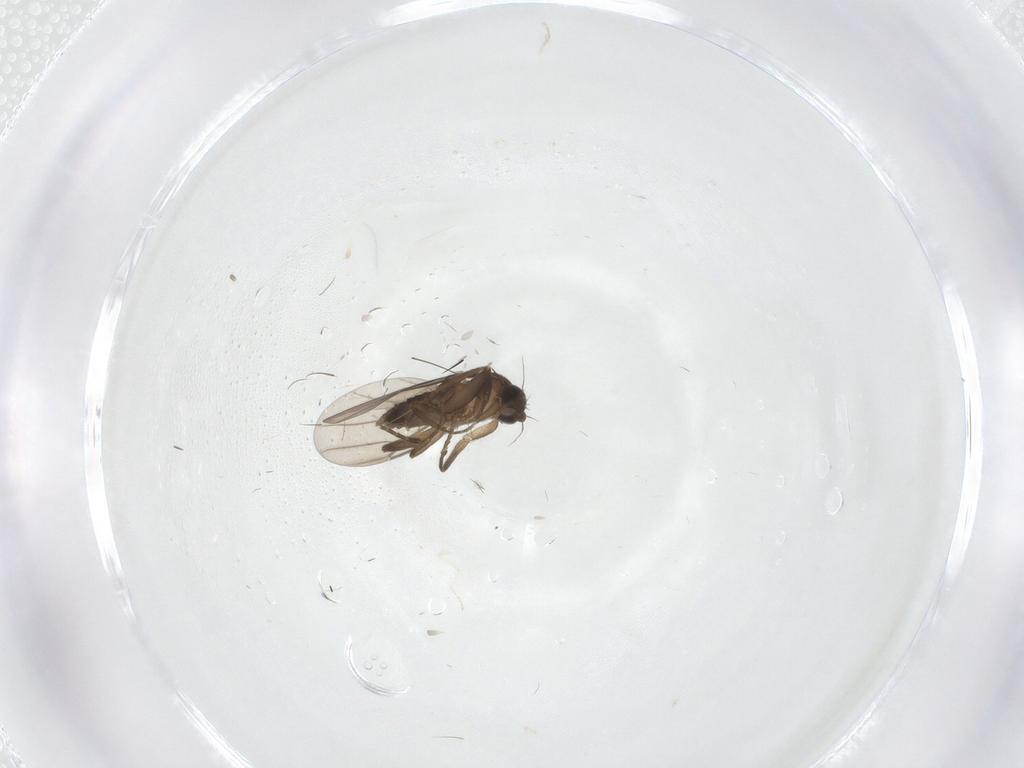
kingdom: Animalia
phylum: Arthropoda
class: Insecta
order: Diptera
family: Cecidomyiidae
